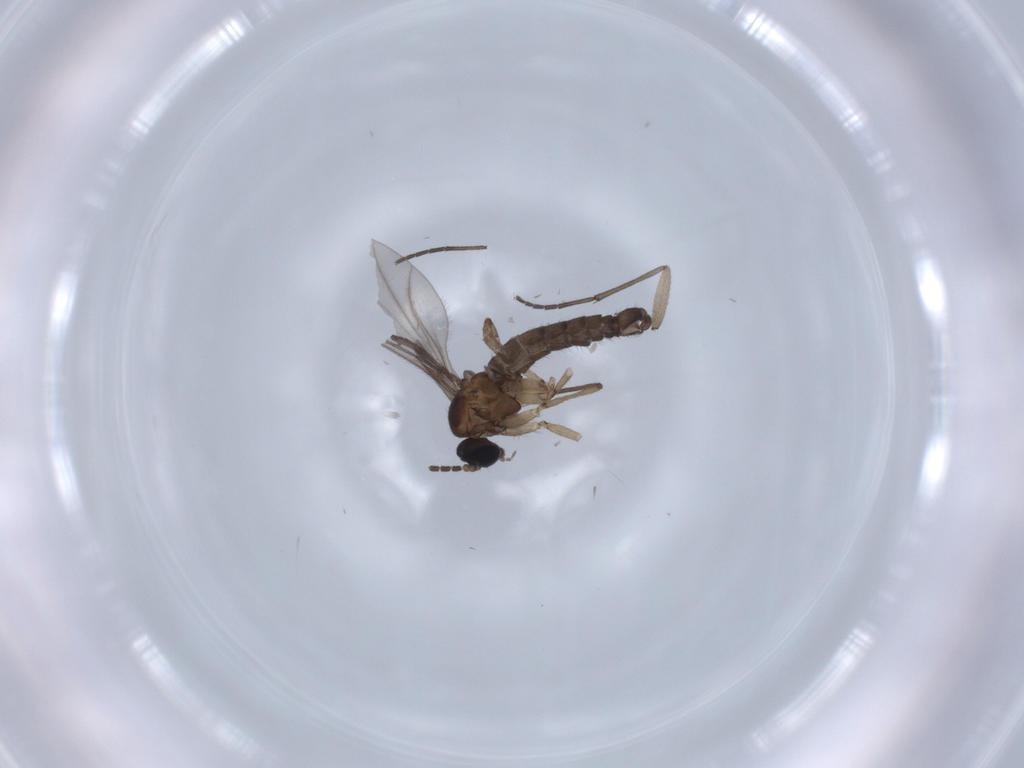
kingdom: Animalia
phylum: Arthropoda
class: Insecta
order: Diptera
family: Sciaridae
